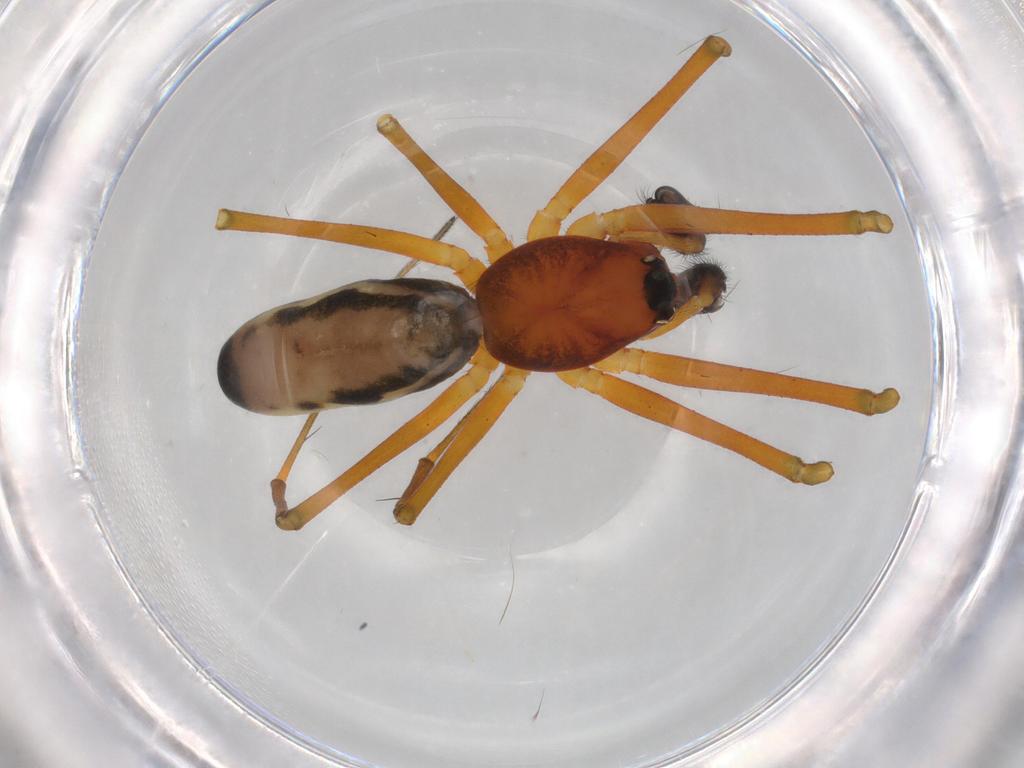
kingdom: Animalia
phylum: Arthropoda
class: Arachnida
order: Araneae
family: Linyphiidae
